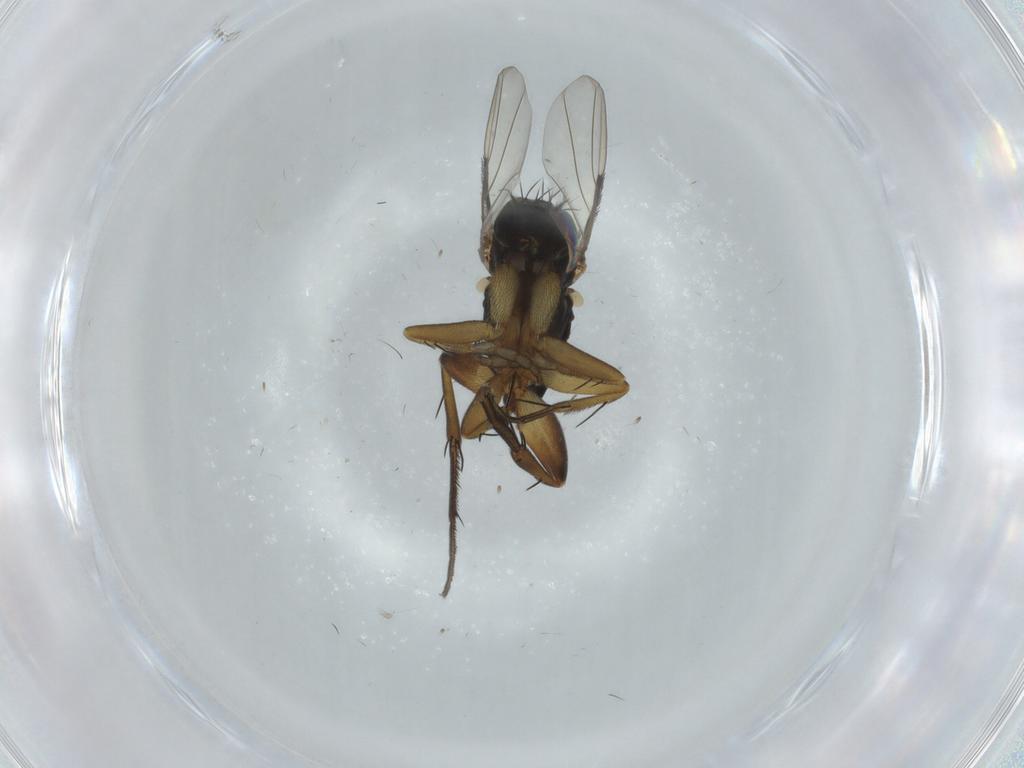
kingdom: Animalia
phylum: Arthropoda
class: Insecta
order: Diptera
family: Phoridae
